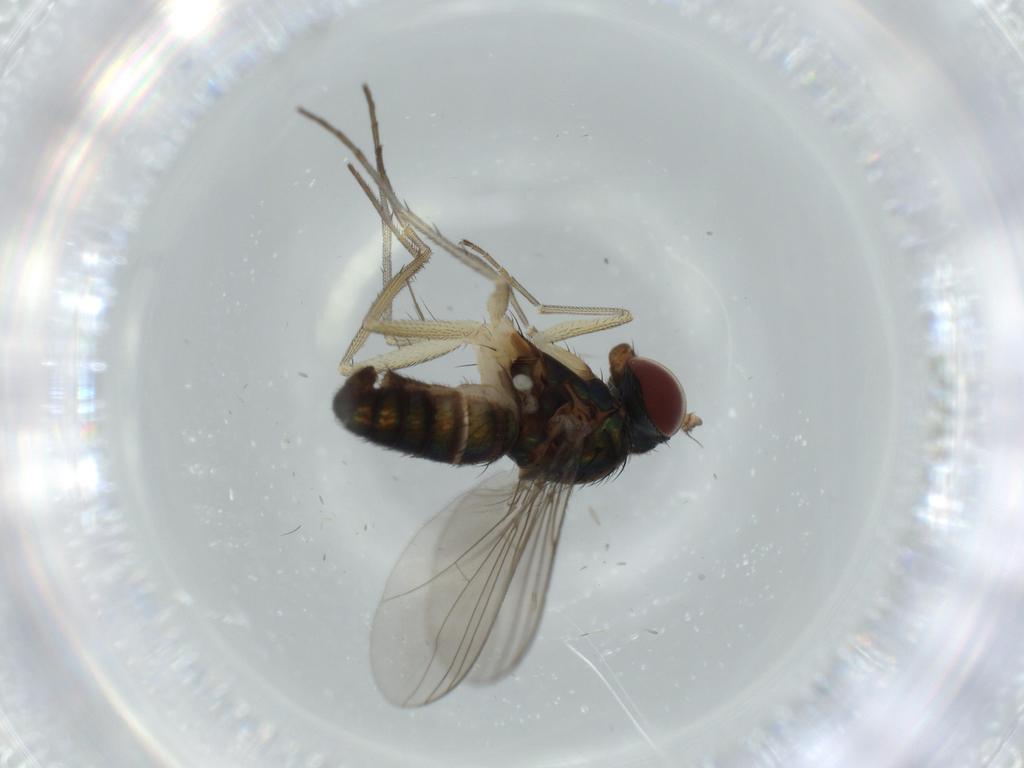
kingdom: Animalia
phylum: Arthropoda
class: Insecta
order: Diptera
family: Dolichopodidae
